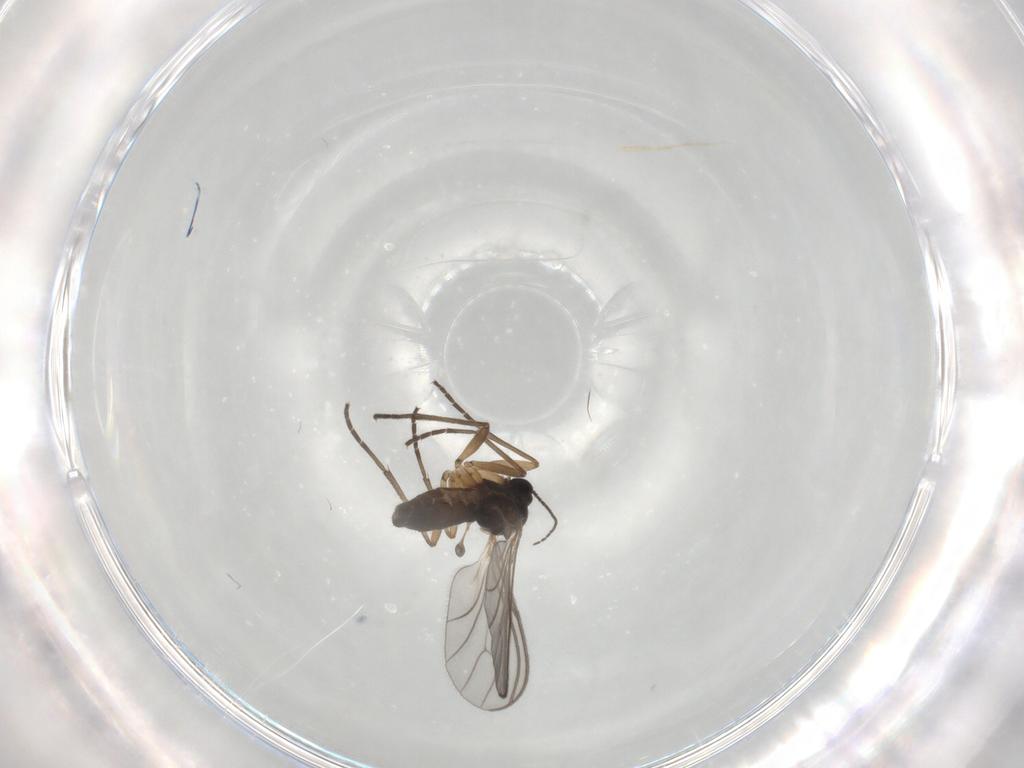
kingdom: Animalia
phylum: Arthropoda
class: Insecta
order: Diptera
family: Sciaridae
